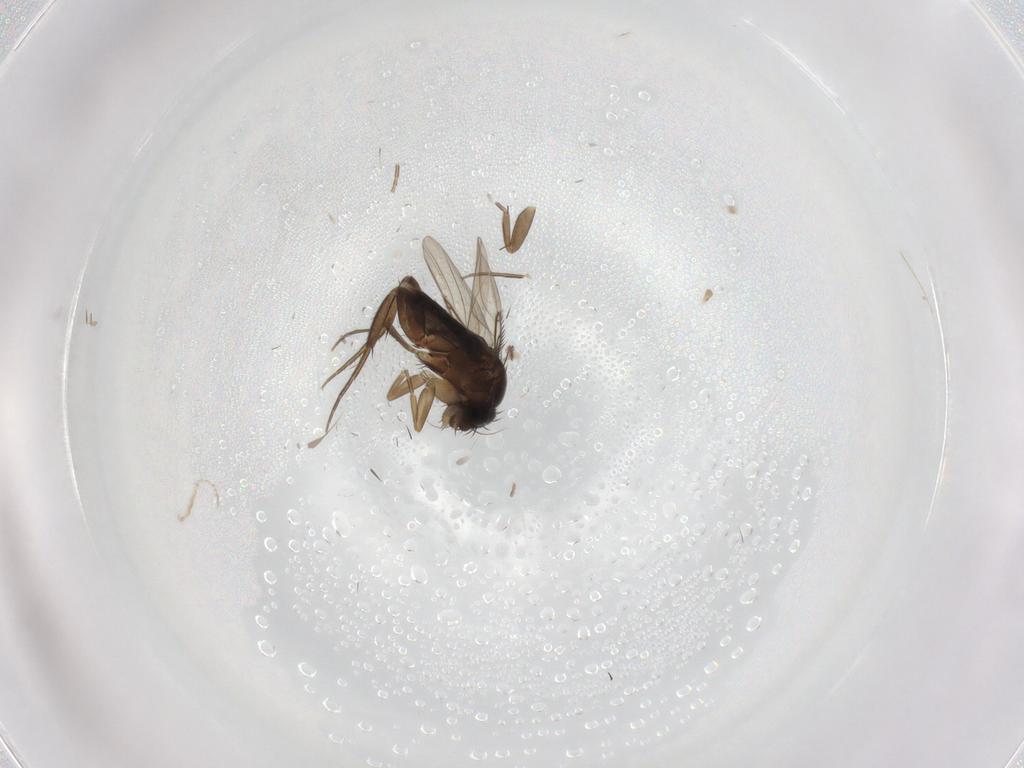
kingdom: Animalia
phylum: Arthropoda
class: Insecta
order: Diptera
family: Phoridae
